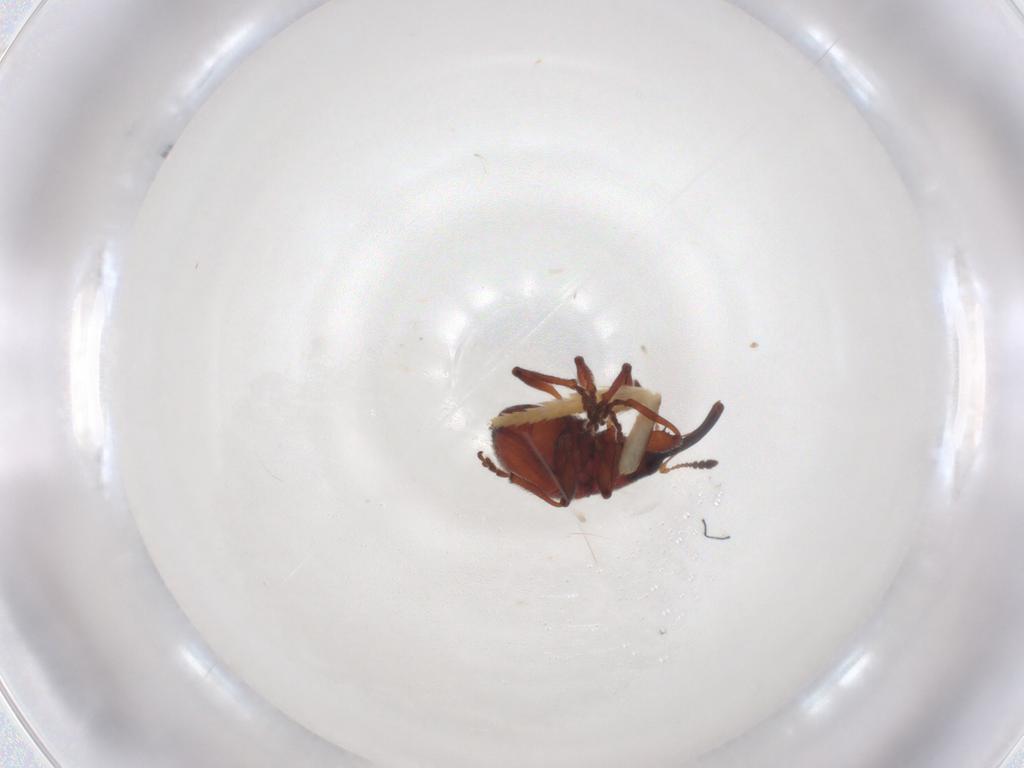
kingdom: Animalia
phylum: Arthropoda
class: Insecta
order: Coleoptera
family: Brentidae
